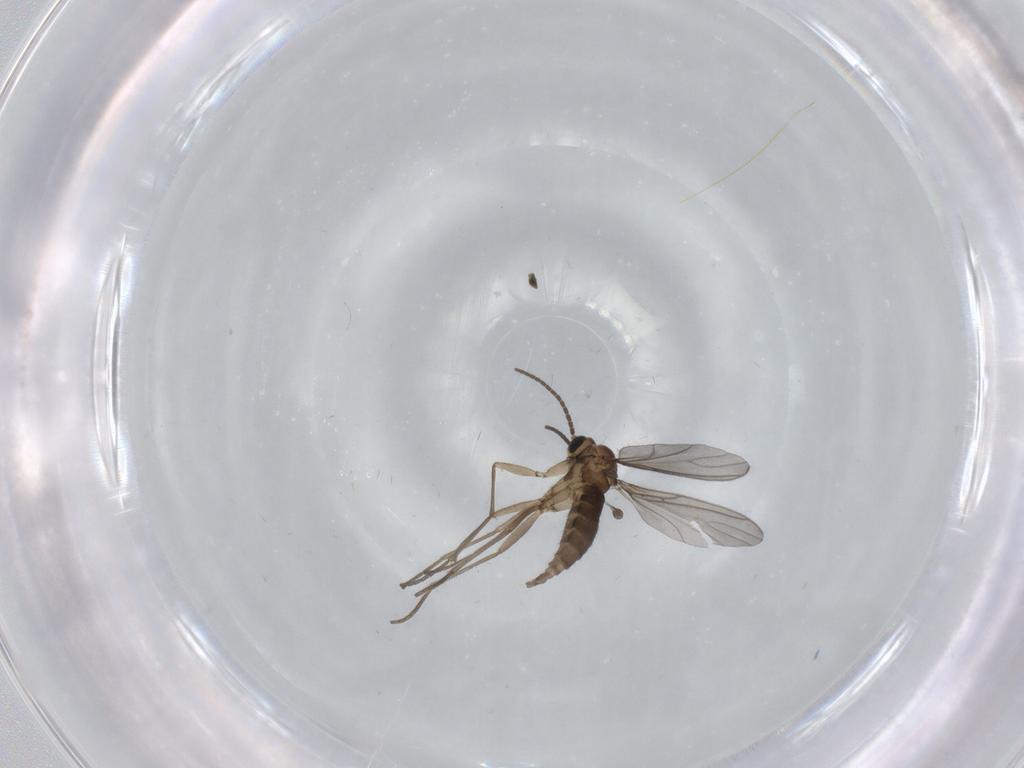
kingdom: Animalia
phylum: Arthropoda
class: Insecta
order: Diptera
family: Sciaridae
